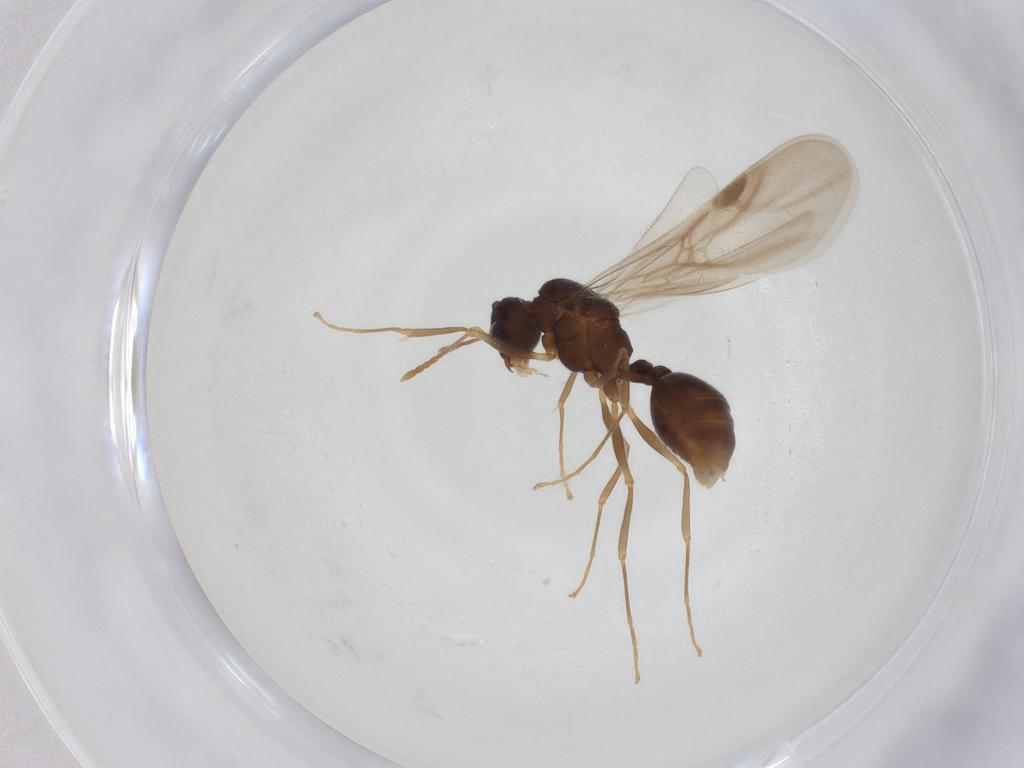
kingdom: Animalia
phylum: Arthropoda
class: Insecta
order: Hymenoptera
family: Formicidae
